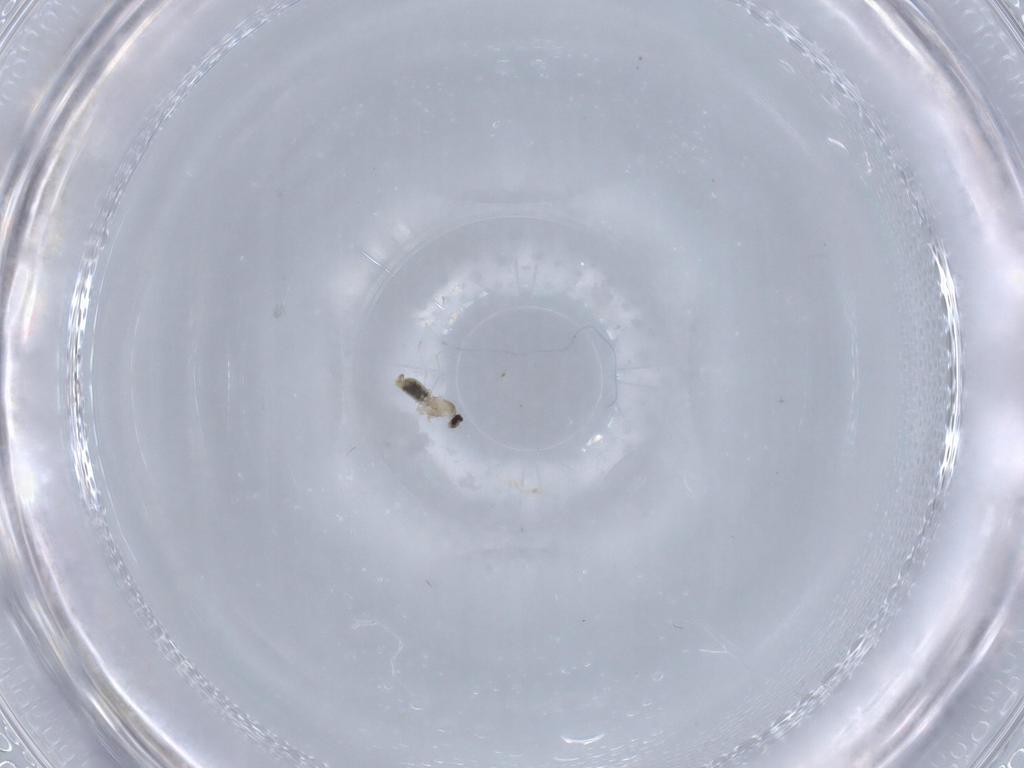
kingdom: Animalia
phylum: Arthropoda
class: Insecta
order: Diptera
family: Cecidomyiidae
